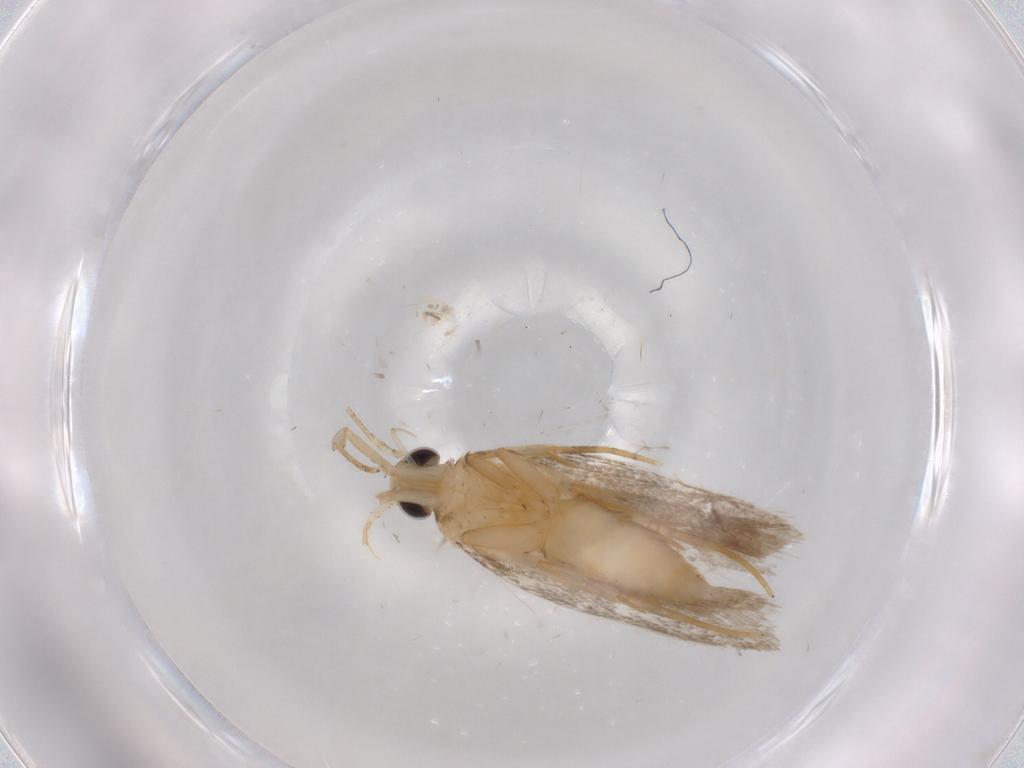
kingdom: Animalia
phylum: Arthropoda
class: Insecta
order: Lepidoptera
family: Autostichidae
